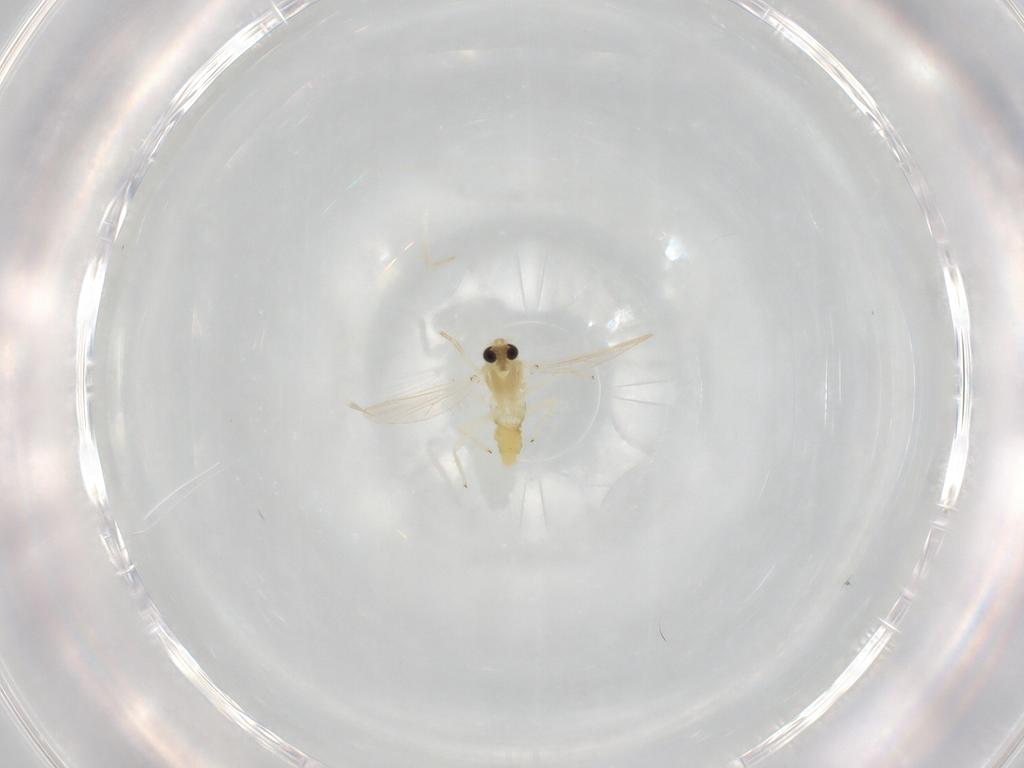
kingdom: Animalia
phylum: Arthropoda
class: Insecta
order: Diptera
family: Chironomidae
